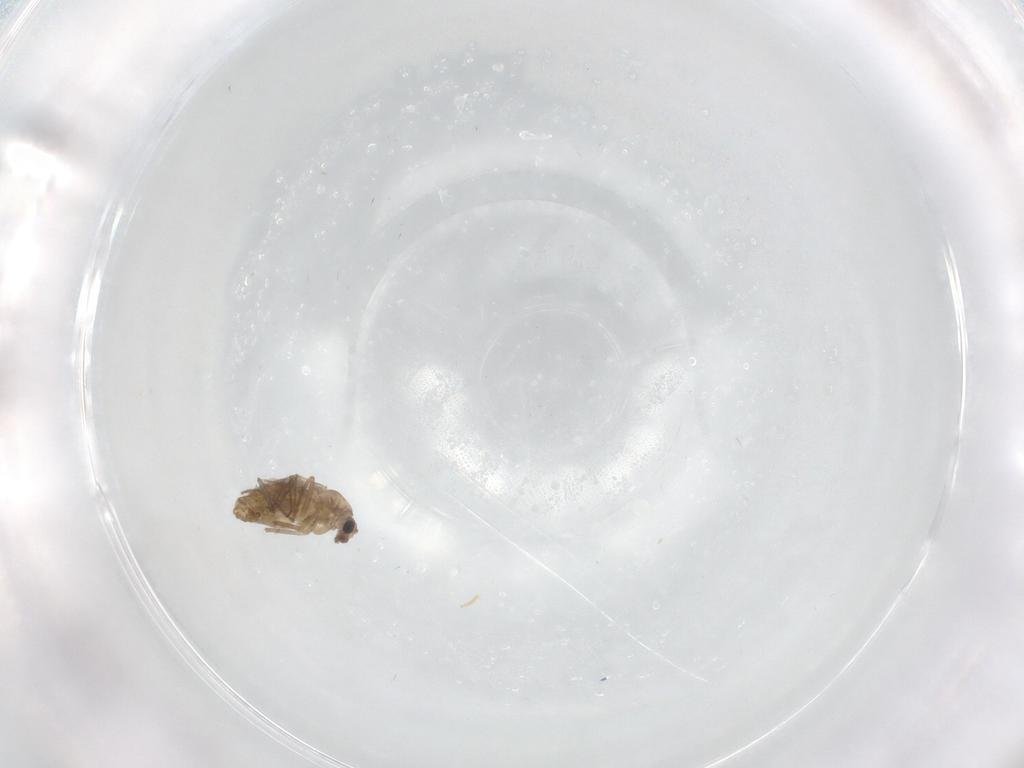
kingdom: Animalia
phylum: Arthropoda
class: Insecta
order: Diptera
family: Chironomidae
